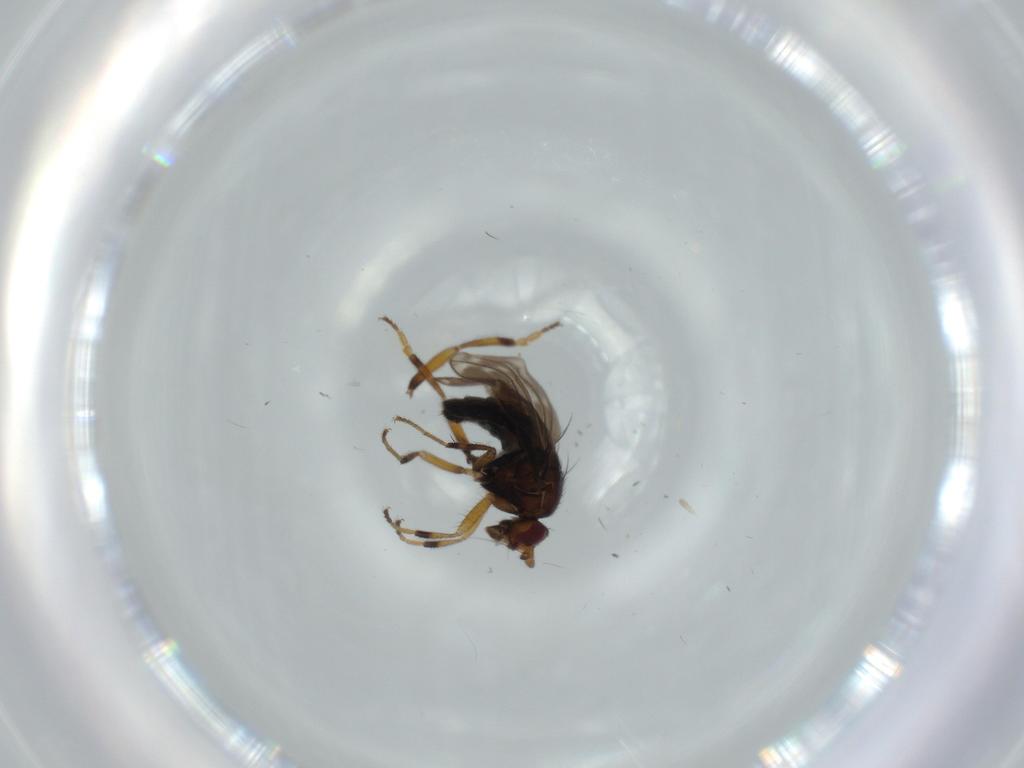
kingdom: Animalia
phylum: Arthropoda
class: Insecta
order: Diptera
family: Sphaeroceridae
